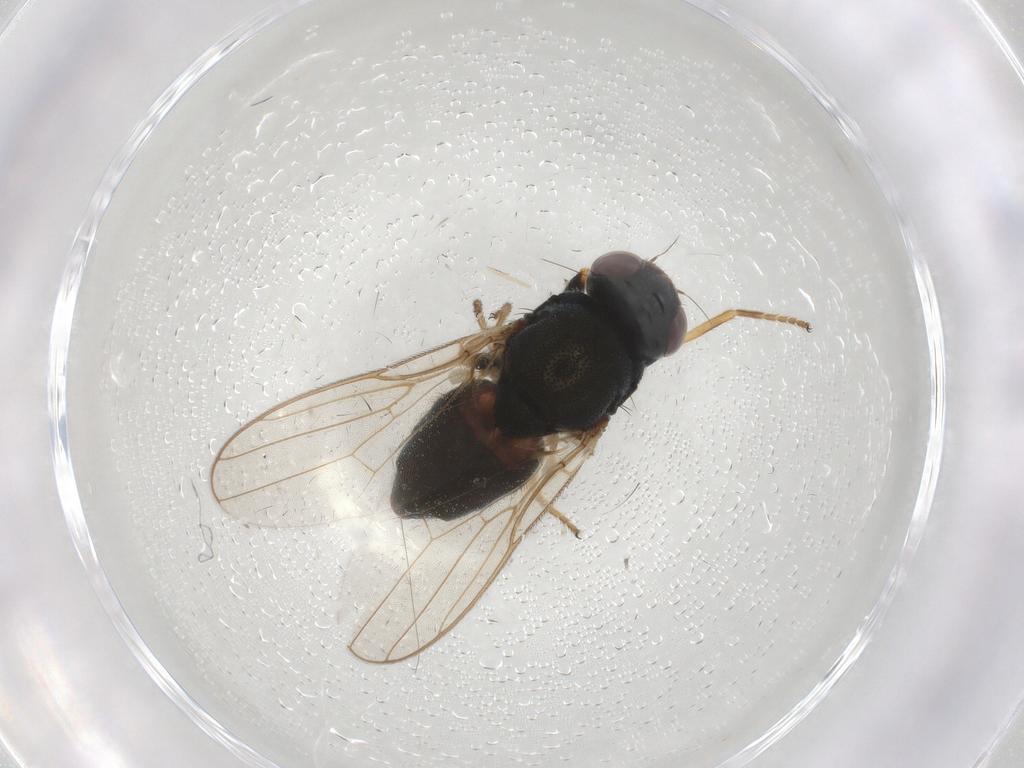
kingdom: Animalia
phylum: Arthropoda
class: Insecta
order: Diptera
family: Chloropidae
